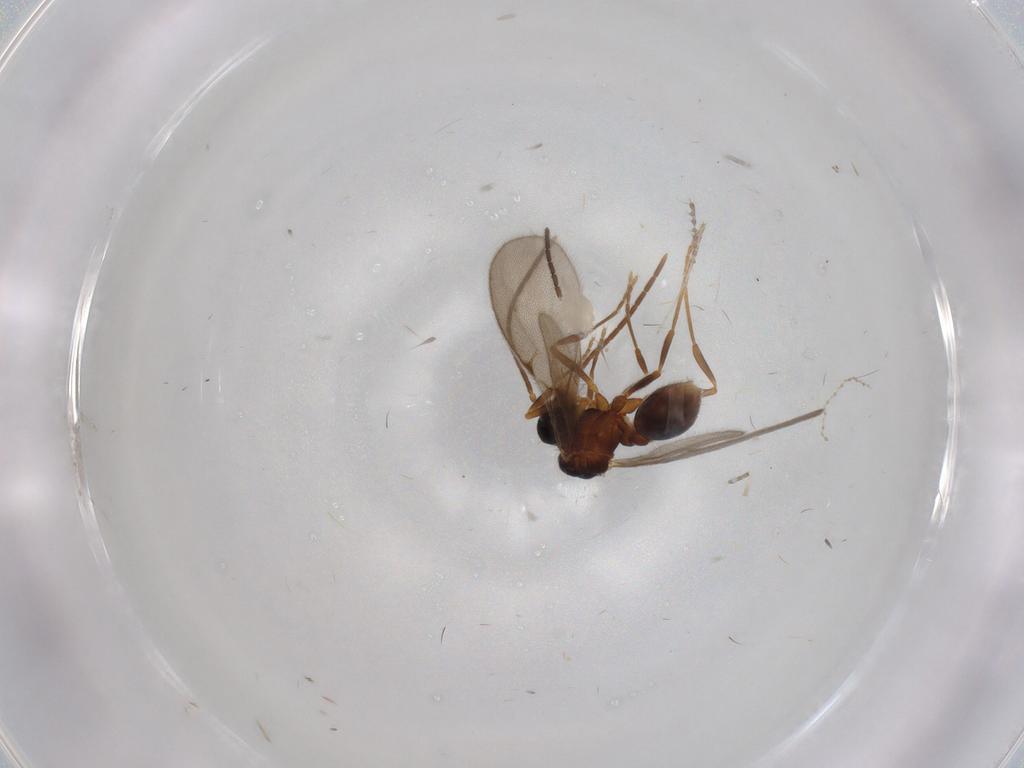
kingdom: Animalia
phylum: Arthropoda
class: Insecta
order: Hymenoptera
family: Formicidae
